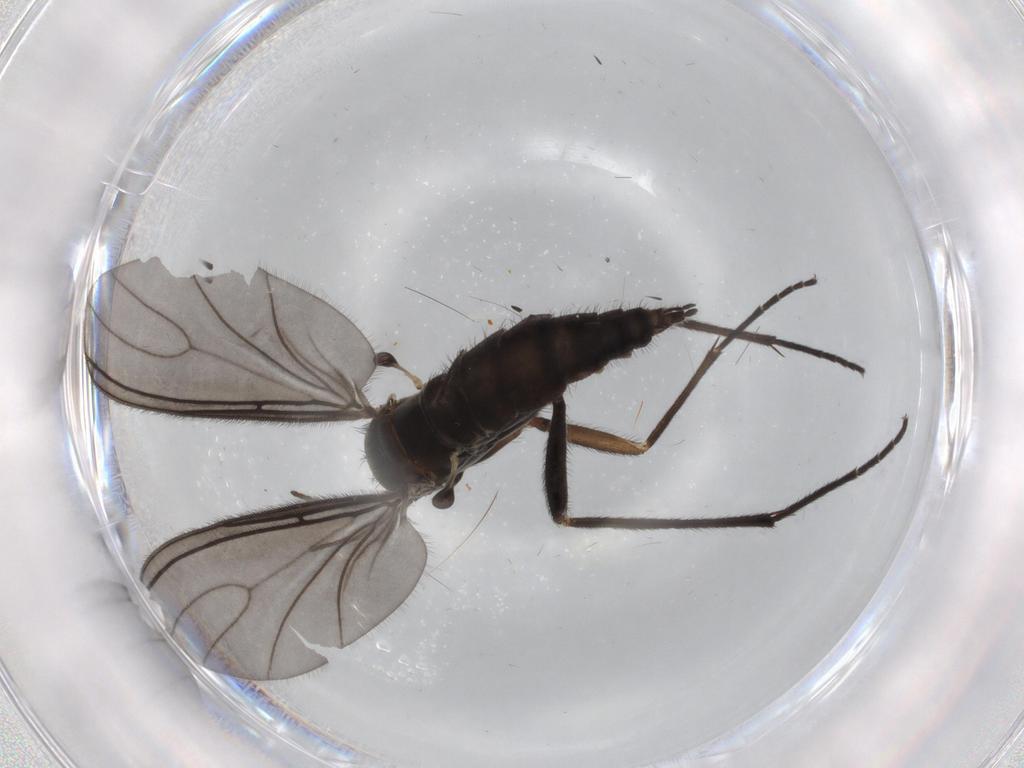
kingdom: Animalia
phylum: Arthropoda
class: Insecta
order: Diptera
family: Sciaridae
